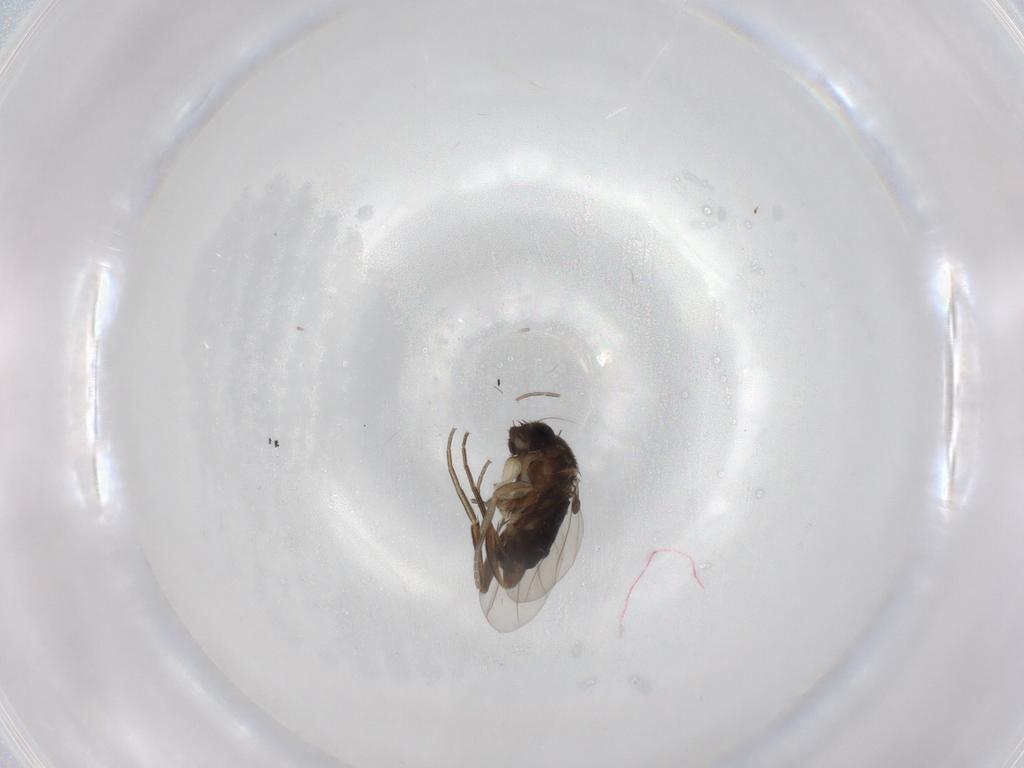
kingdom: Animalia
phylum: Arthropoda
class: Insecta
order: Diptera
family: Phoridae
